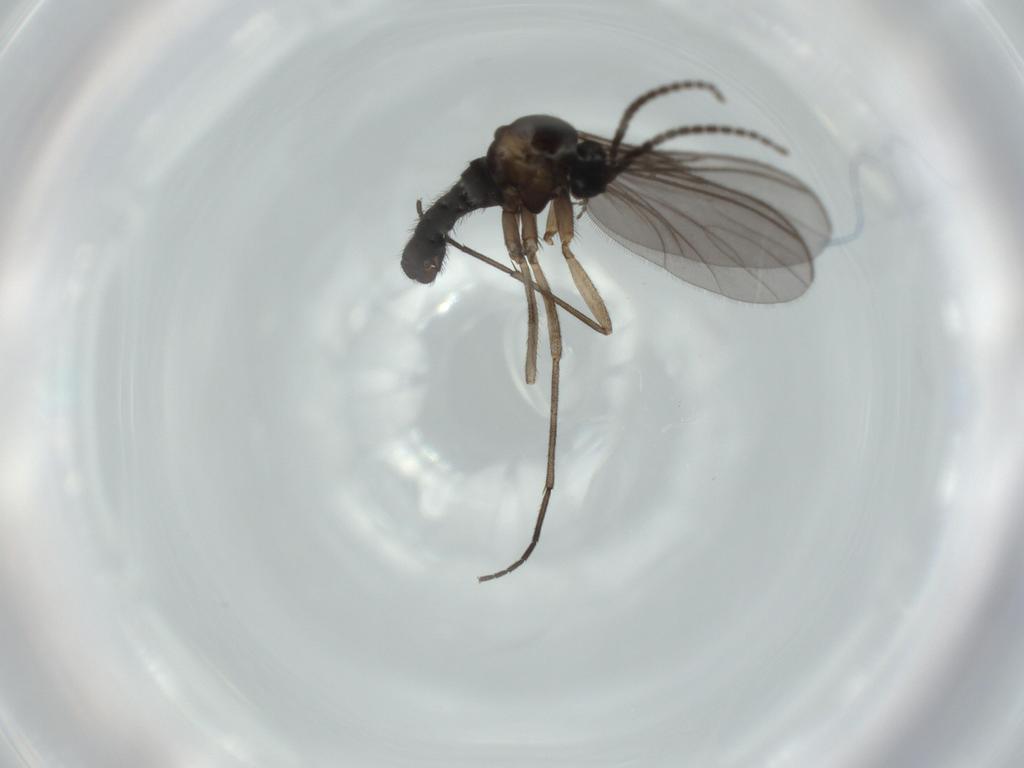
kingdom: Animalia
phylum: Arthropoda
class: Insecta
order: Diptera
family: Sciaridae
